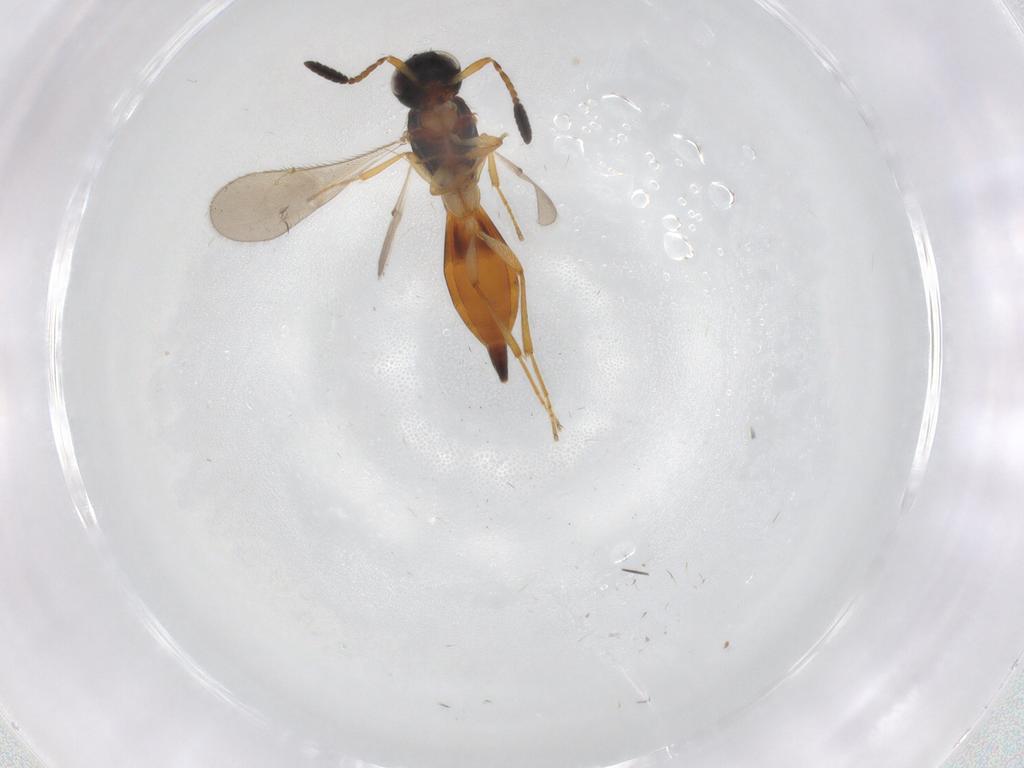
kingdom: Animalia
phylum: Arthropoda
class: Insecta
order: Hymenoptera
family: Scelionidae
